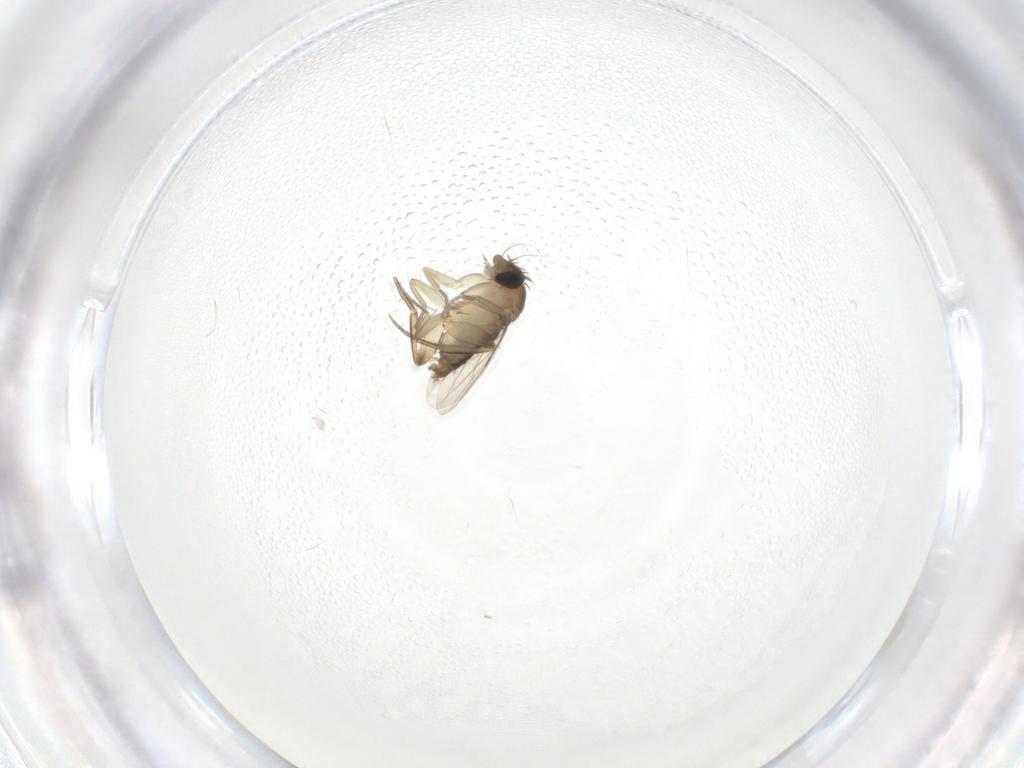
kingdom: Animalia
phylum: Arthropoda
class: Insecta
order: Diptera
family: Phoridae
